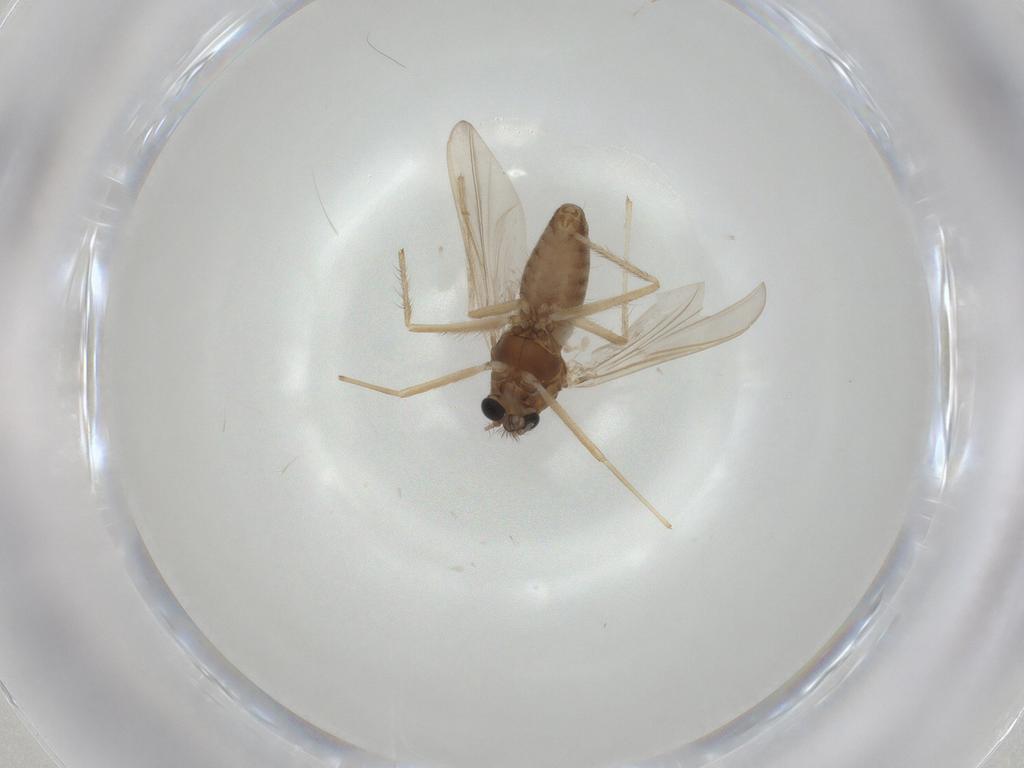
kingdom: Animalia
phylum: Arthropoda
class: Insecta
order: Diptera
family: Chironomidae
